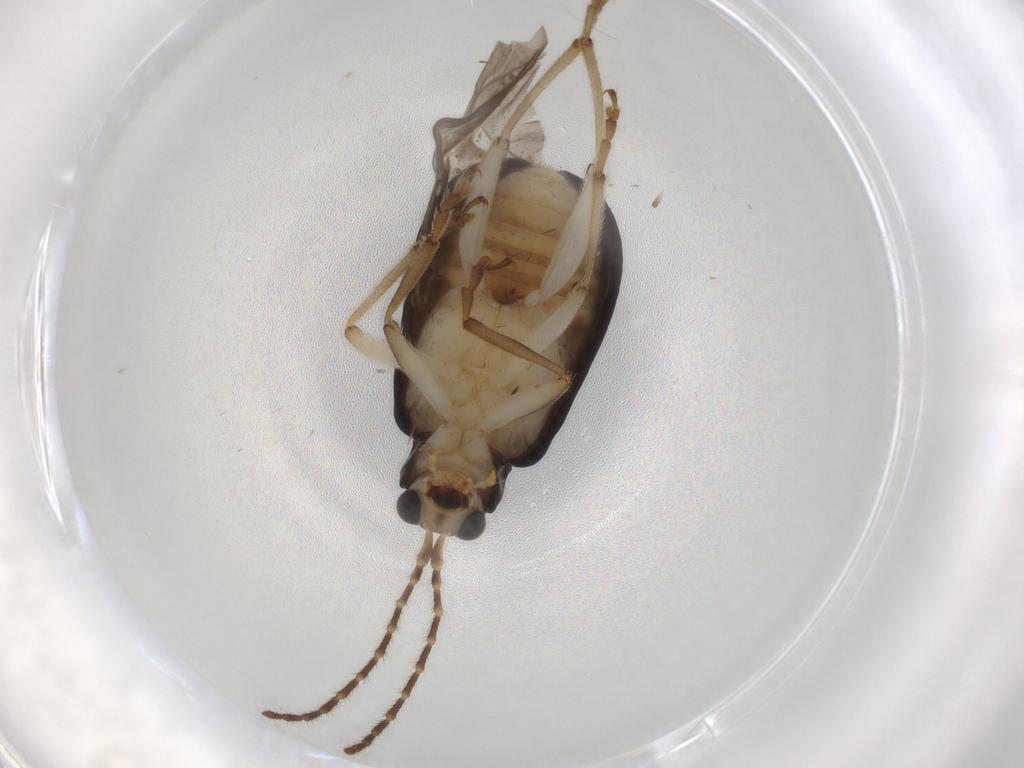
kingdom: Animalia
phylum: Arthropoda
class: Insecta
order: Coleoptera
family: Chrysomelidae
